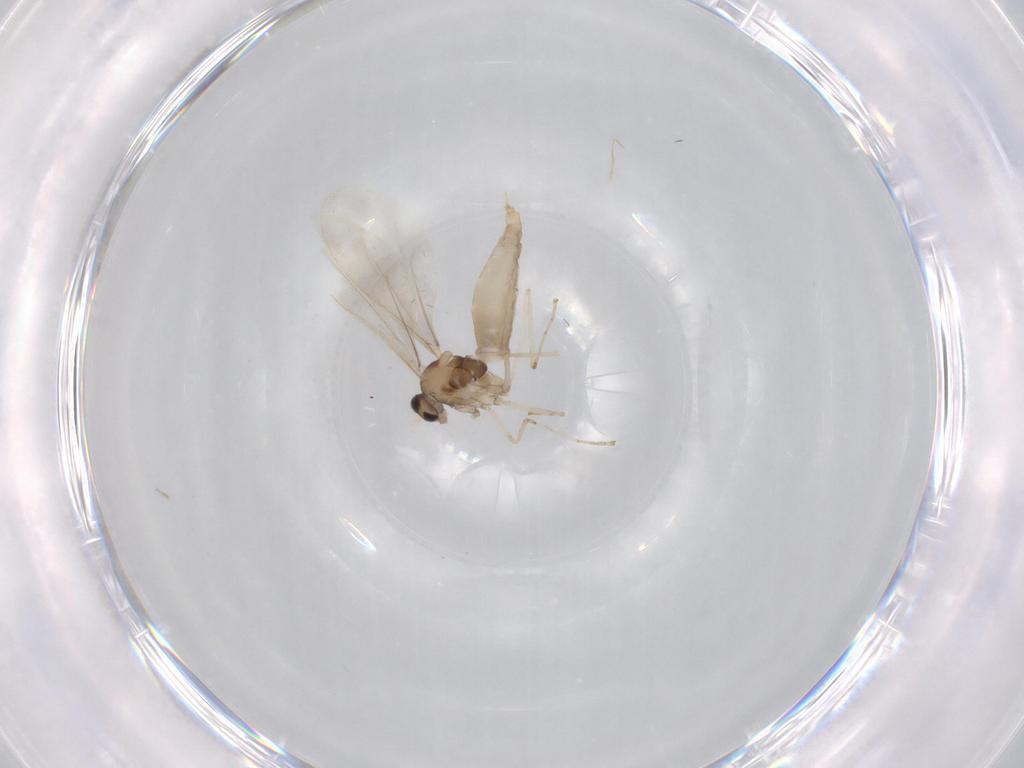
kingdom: Animalia
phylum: Arthropoda
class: Insecta
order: Diptera
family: Cecidomyiidae
